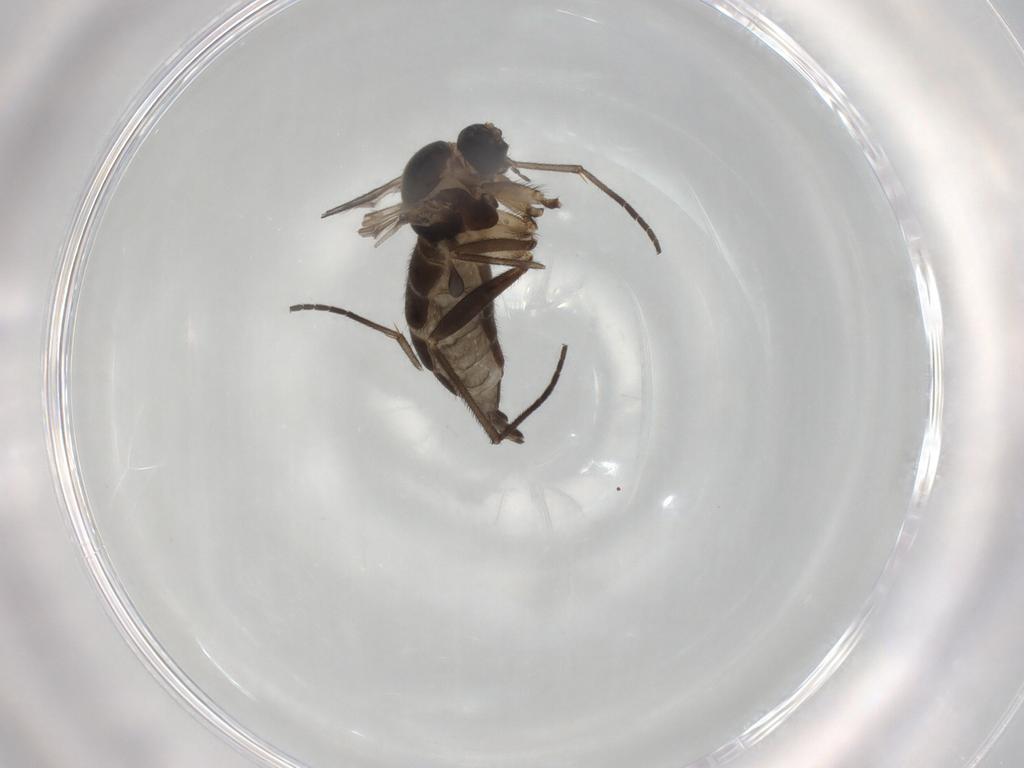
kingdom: Animalia
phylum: Arthropoda
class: Insecta
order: Diptera
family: Sciaridae
